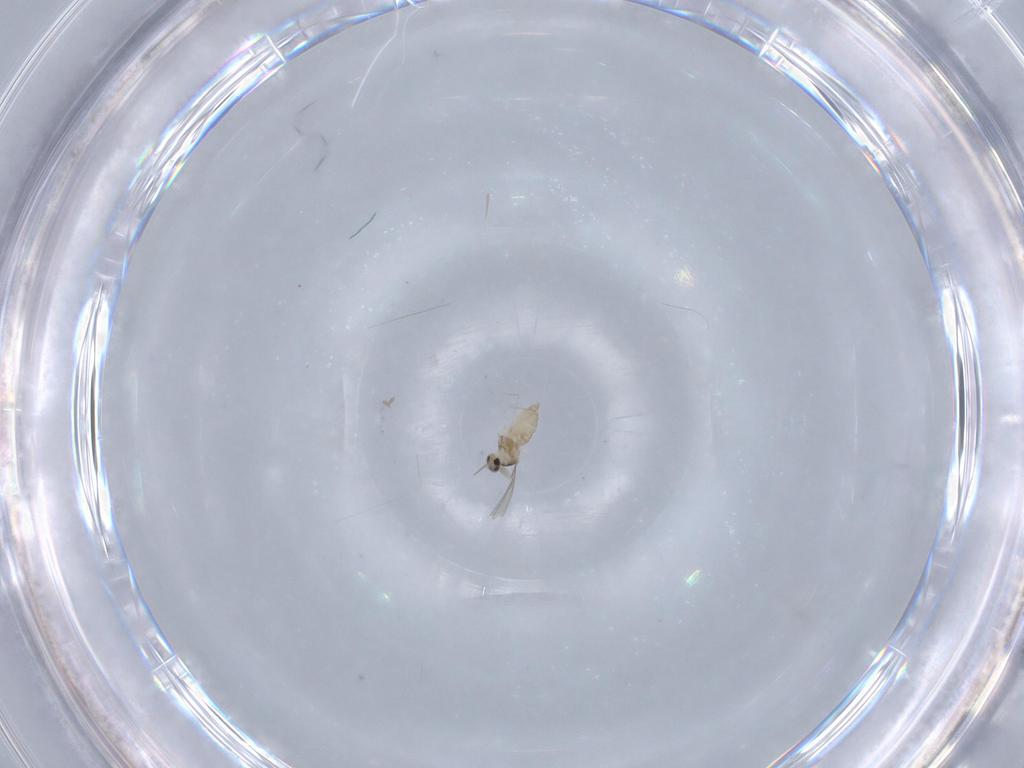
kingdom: Animalia
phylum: Arthropoda
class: Insecta
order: Diptera
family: Cecidomyiidae
